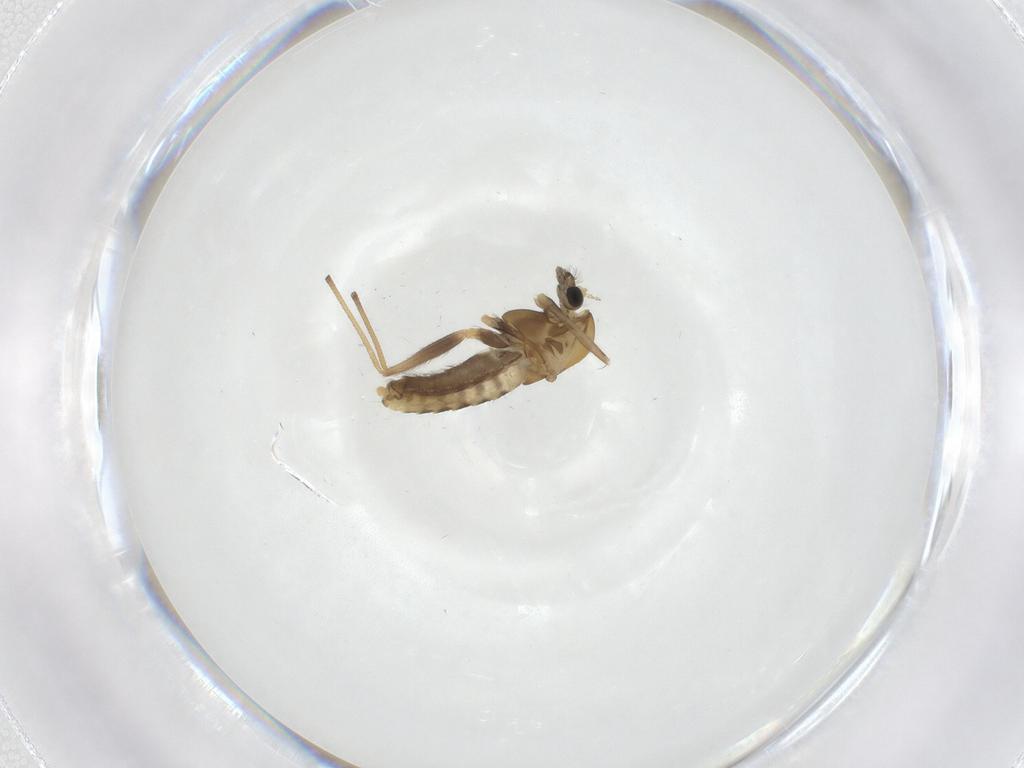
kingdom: Animalia
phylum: Arthropoda
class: Insecta
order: Diptera
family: Chironomidae
